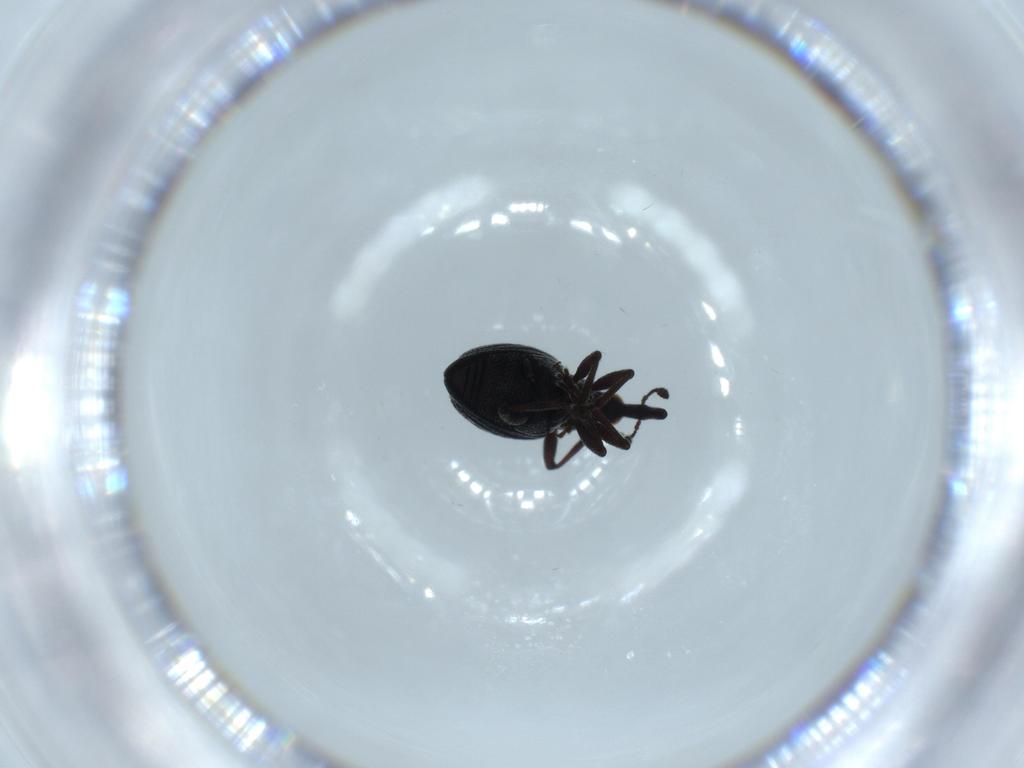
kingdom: Animalia
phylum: Arthropoda
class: Insecta
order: Coleoptera
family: Brentidae
